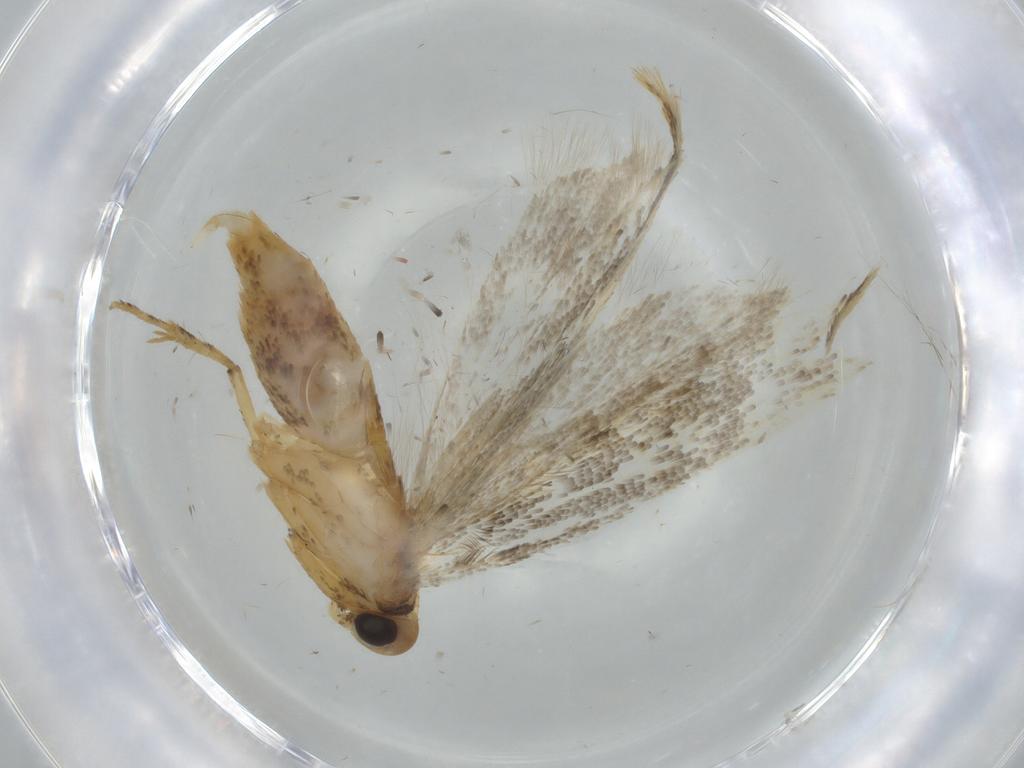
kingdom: Animalia
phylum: Arthropoda
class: Insecta
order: Lepidoptera
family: Gelechiidae
